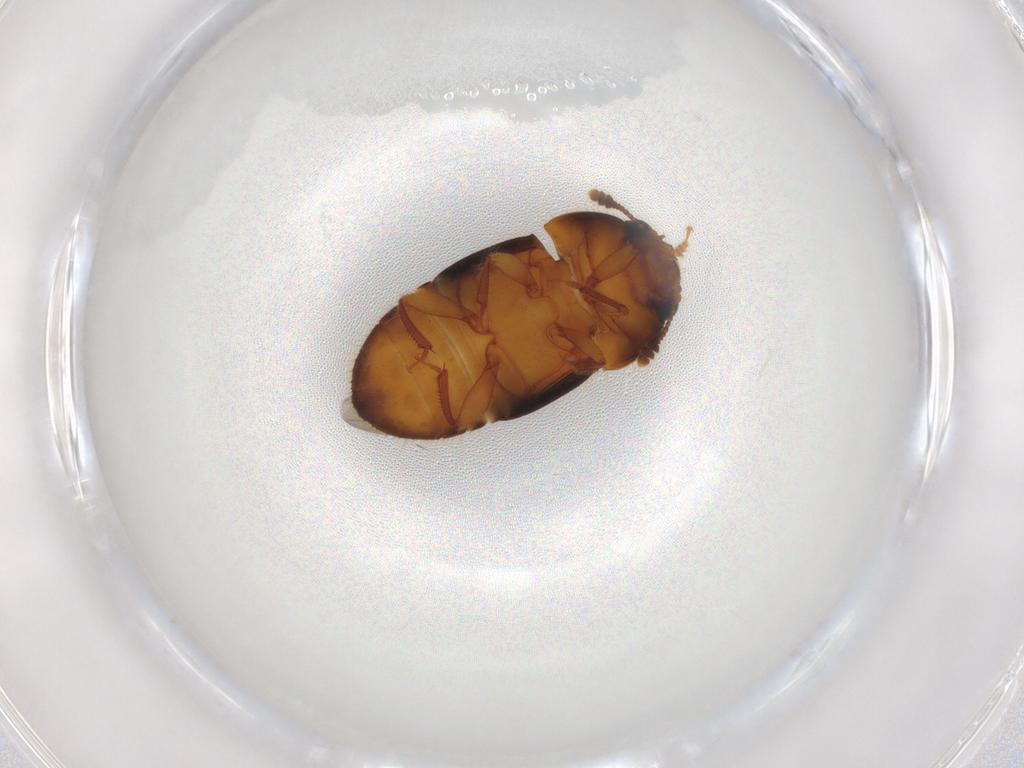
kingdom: Animalia
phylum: Arthropoda
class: Insecta
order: Coleoptera
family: Nitidulidae
